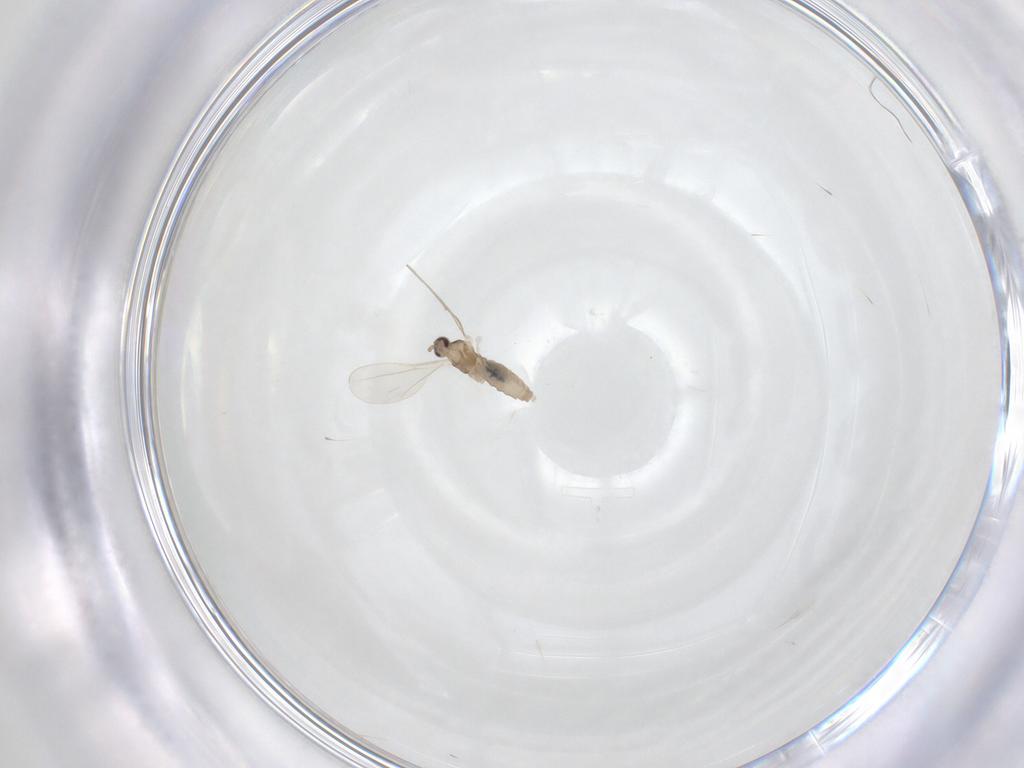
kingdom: Animalia
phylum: Arthropoda
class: Insecta
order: Diptera
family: Cecidomyiidae
